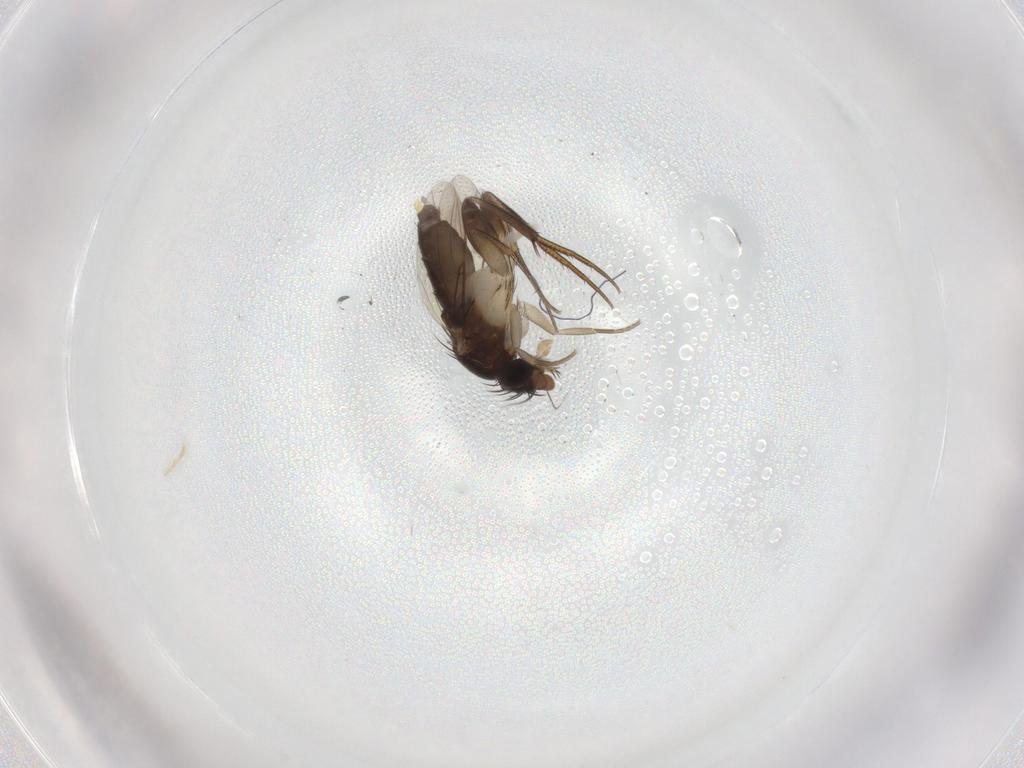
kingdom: Animalia
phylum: Arthropoda
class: Insecta
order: Diptera
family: Phoridae
